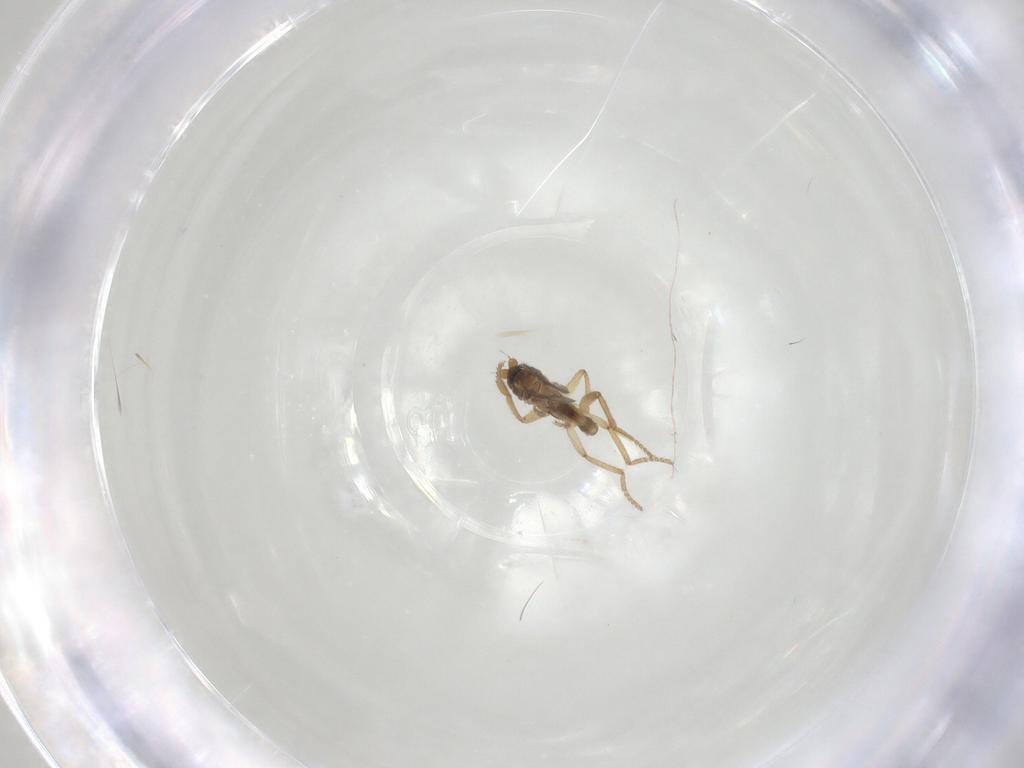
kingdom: Animalia
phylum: Arthropoda
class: Insecta
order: Diptera
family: Phoridae
